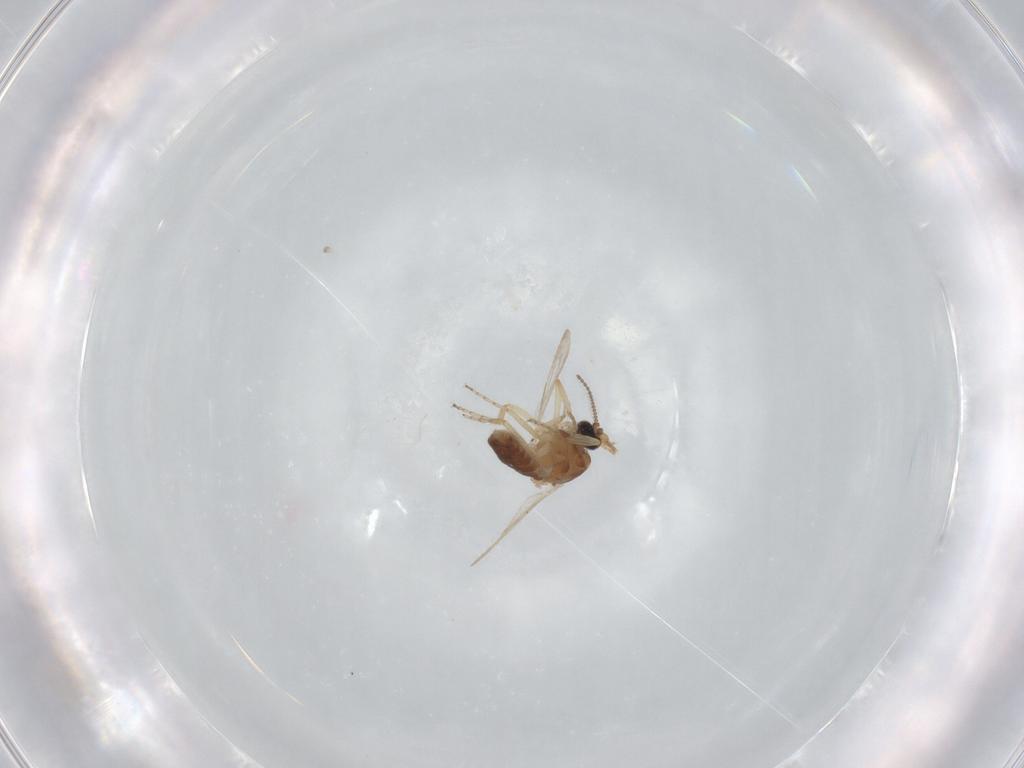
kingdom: Animalia
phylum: Arthropoda
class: Insecta
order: Diptera
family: Ceratopogonidae
